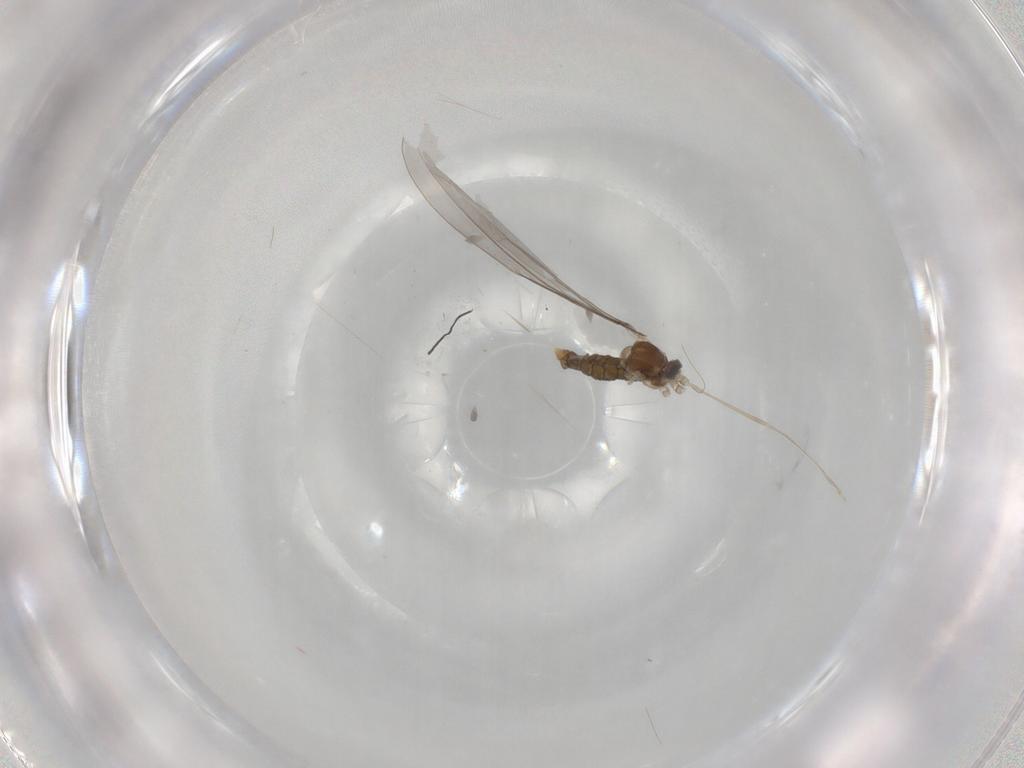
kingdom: Animalia
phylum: Arthropoda
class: Insecta
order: Diptera
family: Cecidomyiidae
